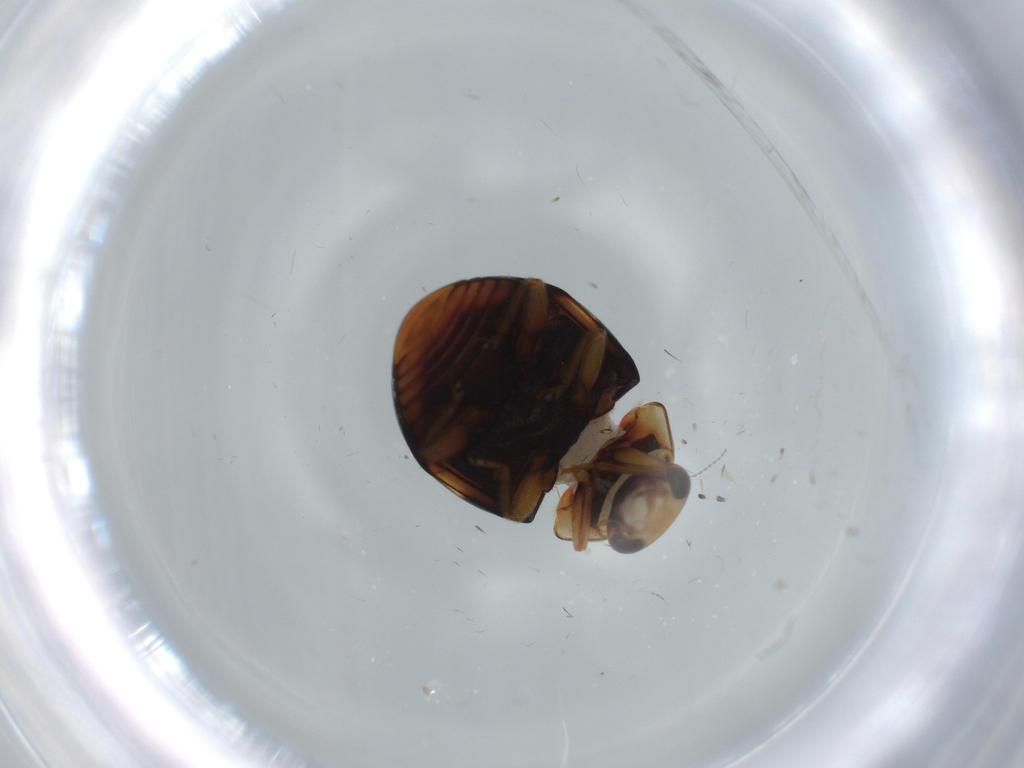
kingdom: Animalia
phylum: Arthropoda
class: Insecta
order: Coleoptera
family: Coccinellidae
